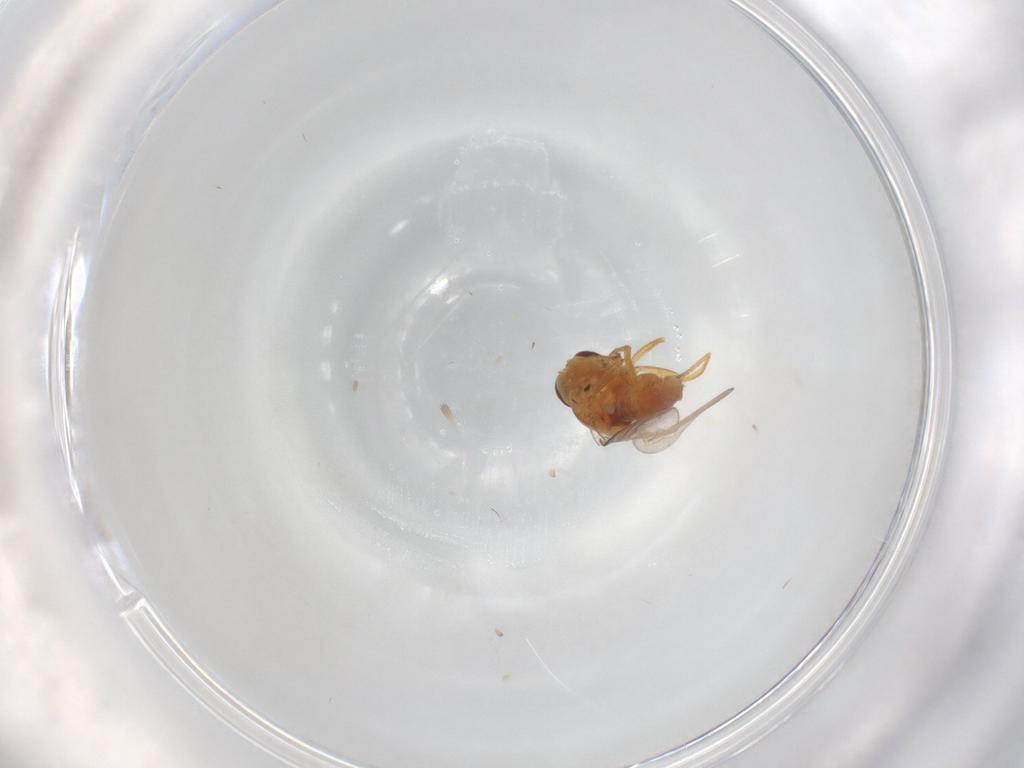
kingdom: Animalia
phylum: Arthropoda
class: Insecta
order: Diptera
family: Chloropidae
